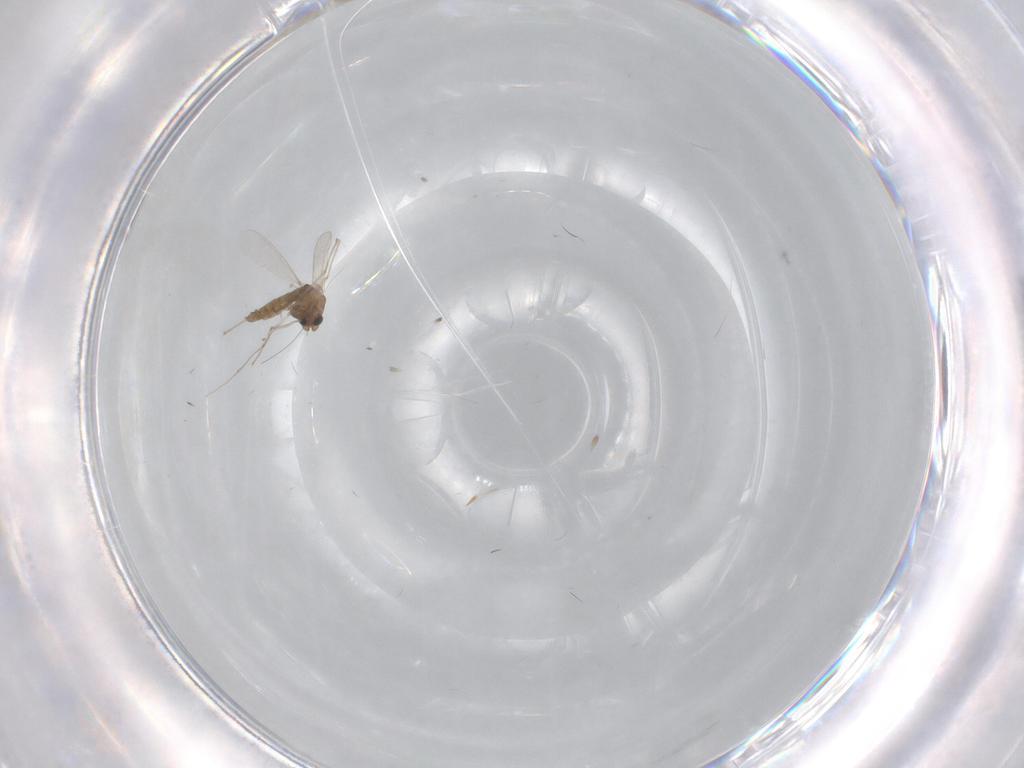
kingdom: Animalia
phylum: Arthropoda
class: Insecta
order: Diptera
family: Chironomidae
